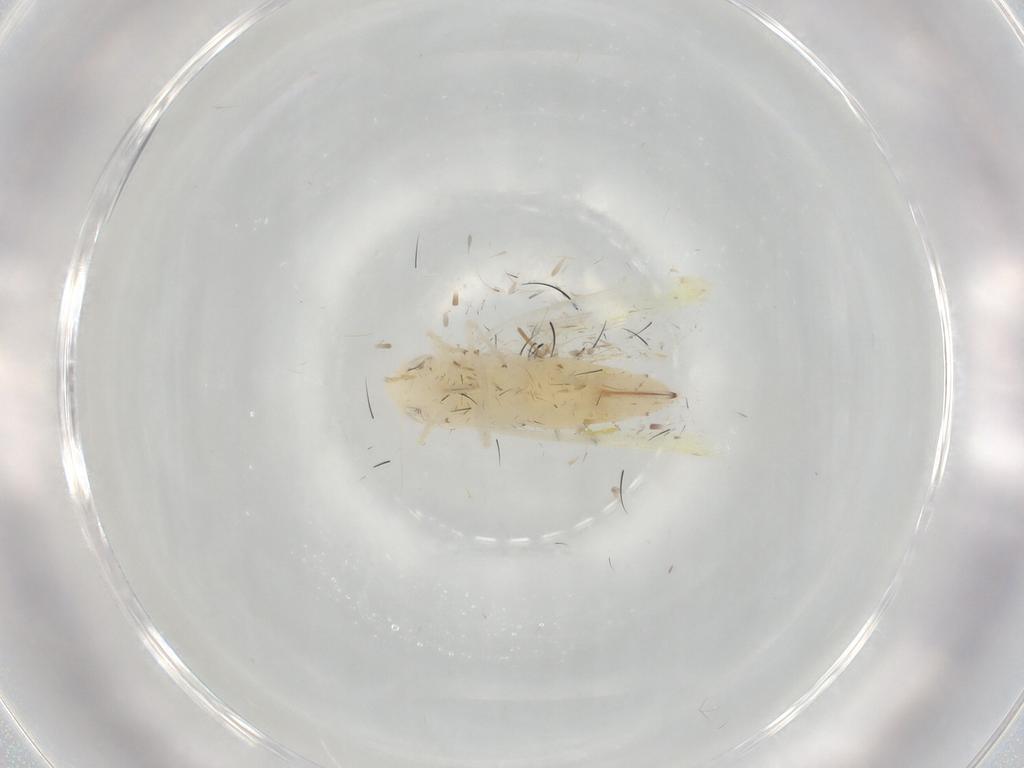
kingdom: Animalia
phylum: Arthropoda
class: Insecta
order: Hemiptera
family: Cicadellidae
